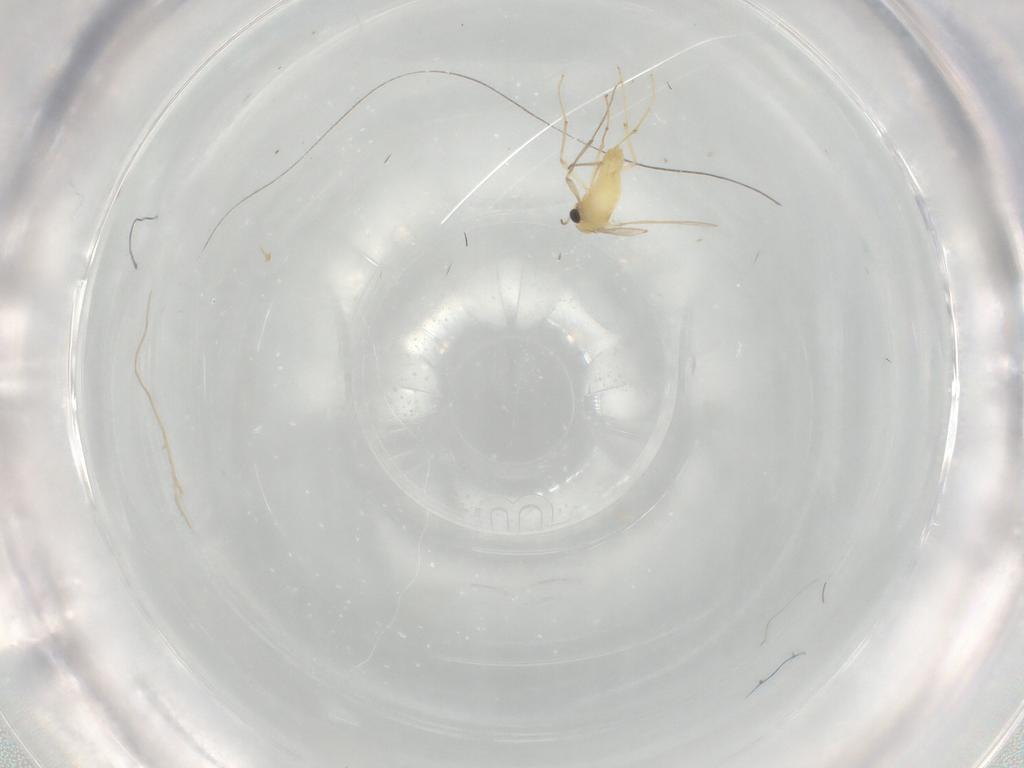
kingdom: Animalia
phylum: Arthropoda
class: Insecta
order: Diptera
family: Chironomidae
